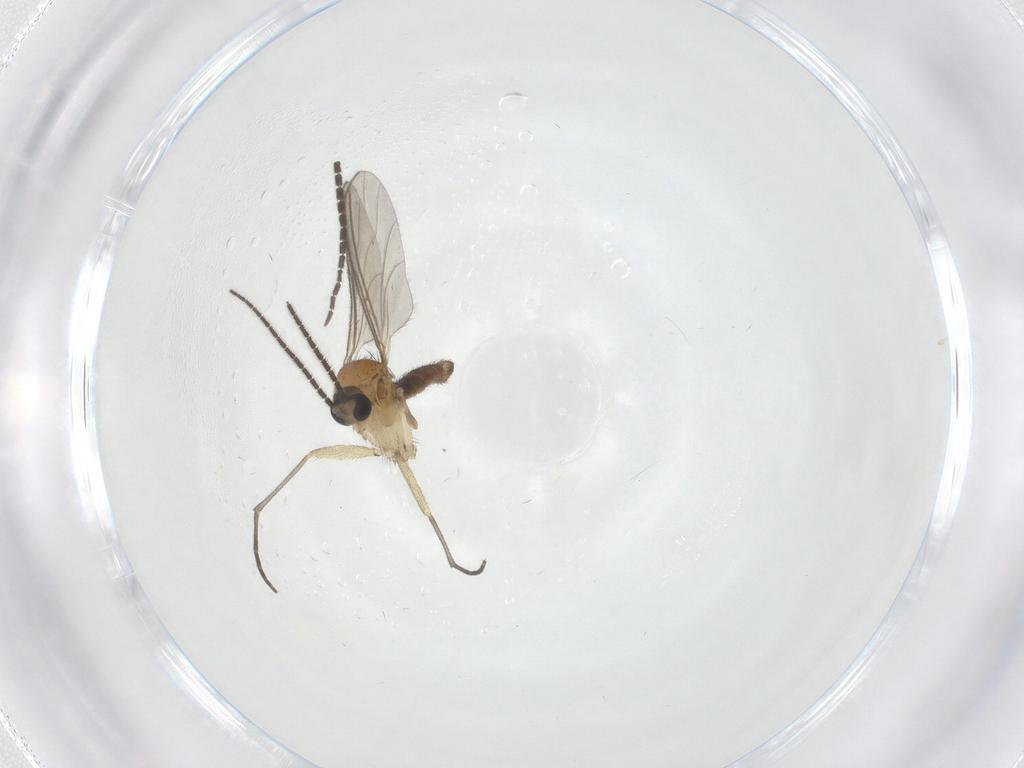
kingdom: Animalia
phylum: Arthropoda
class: Insecta
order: Diptera
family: Sciaridae
